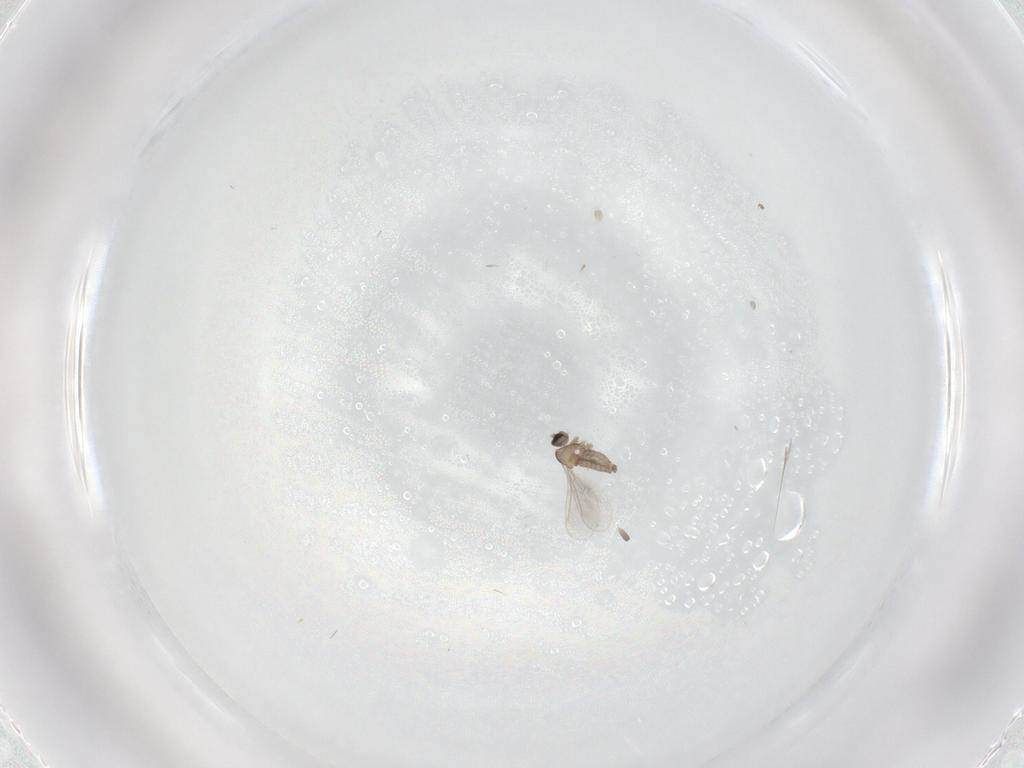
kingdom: Animalia
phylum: Arthropoda
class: Insecta
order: Diptera
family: Cecidomyiidae
